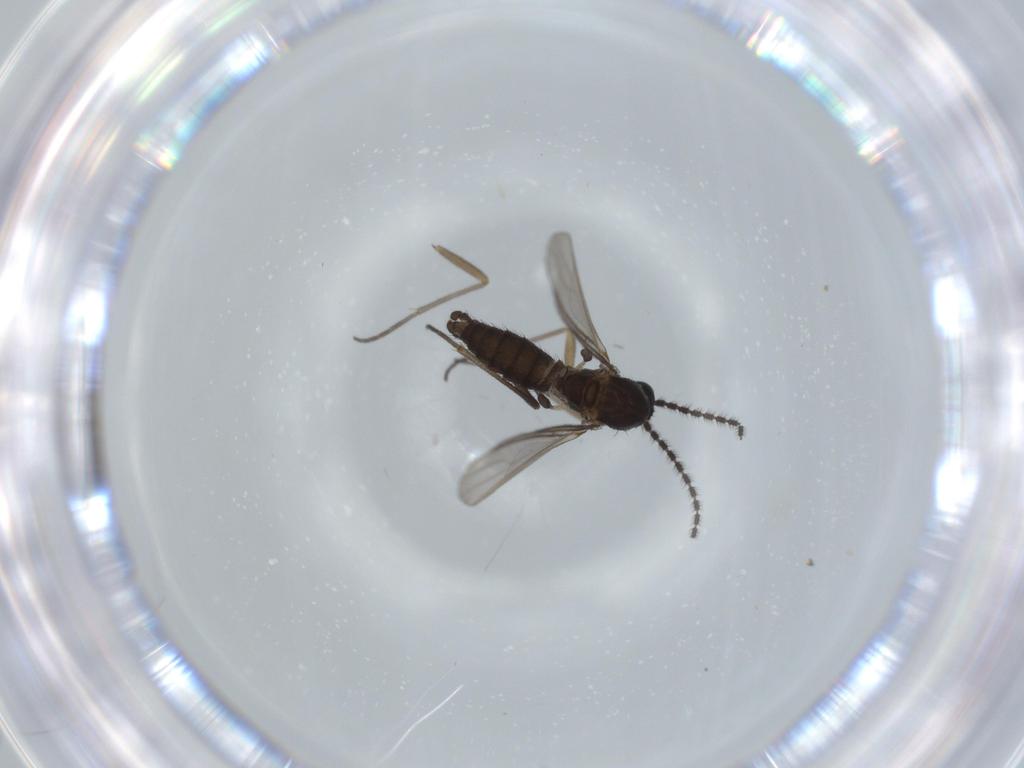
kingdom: Animalia
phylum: Arthropoda
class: Insecta
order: Diptera
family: Sciaridae
